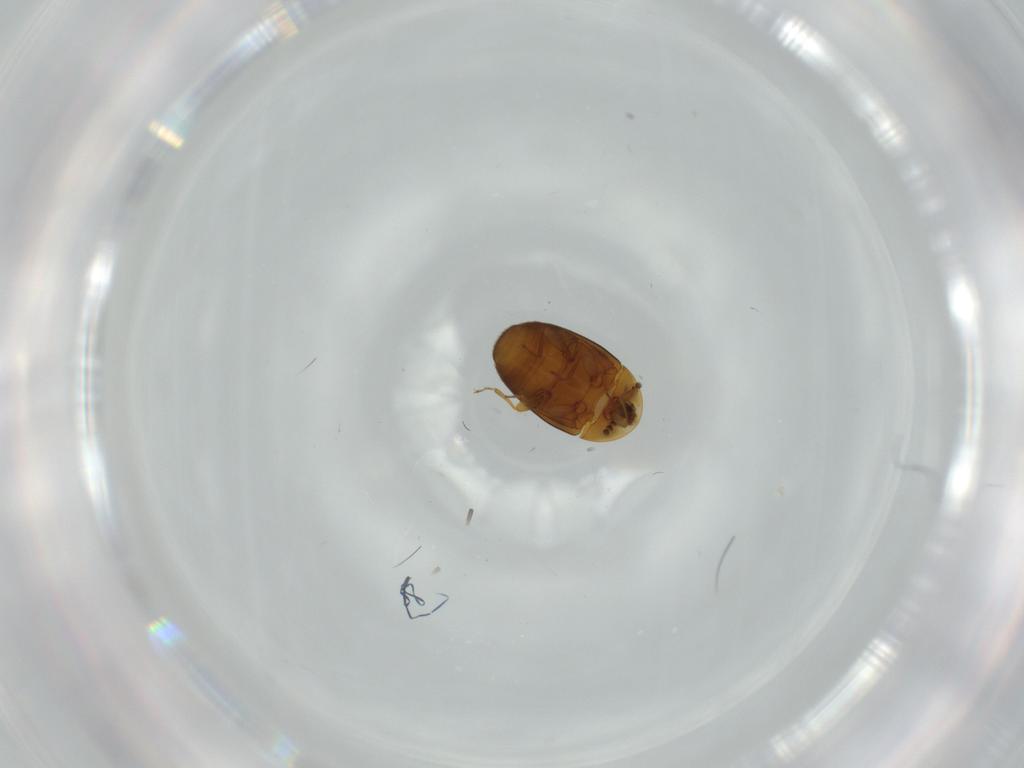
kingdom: Animalia
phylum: Arthropoda
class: Insecta
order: Coleoptera
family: Corylophidae
